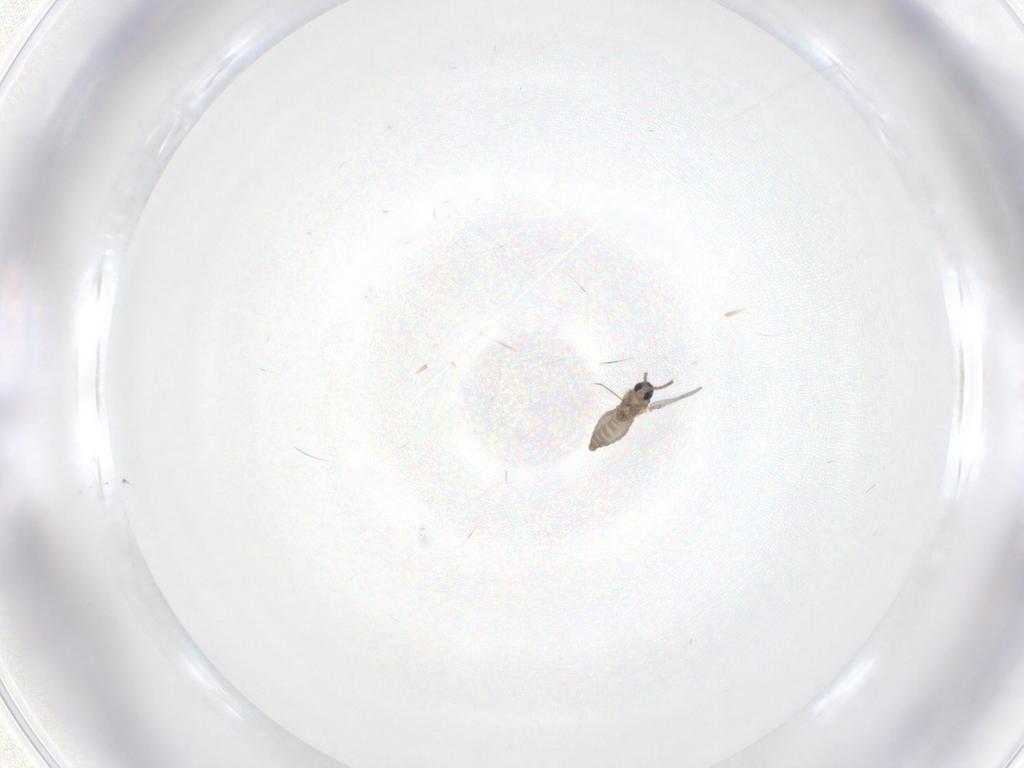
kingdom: Animalia
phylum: Arthropoda
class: Insecta
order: Diptera
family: Cecidomyiidae
